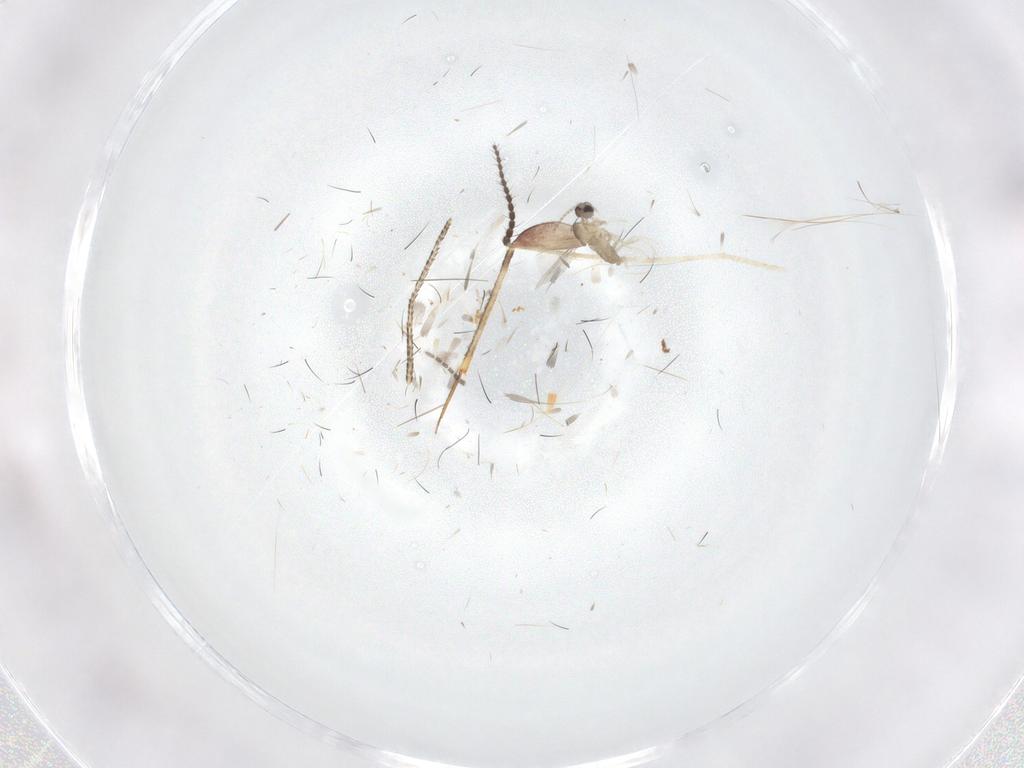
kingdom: Animalia
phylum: Arthropoda
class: Insecta
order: Diptera
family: Limoniidae
